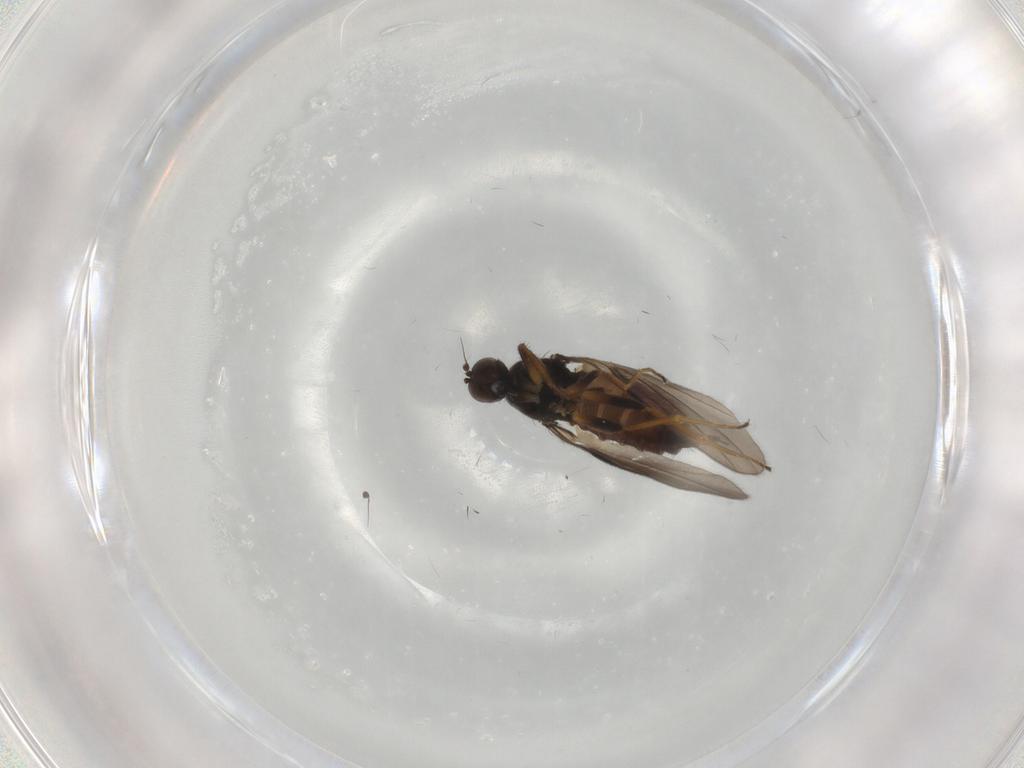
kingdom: Animalia
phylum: Arthropoda
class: Insecta
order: Diptera
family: Hybotidae
